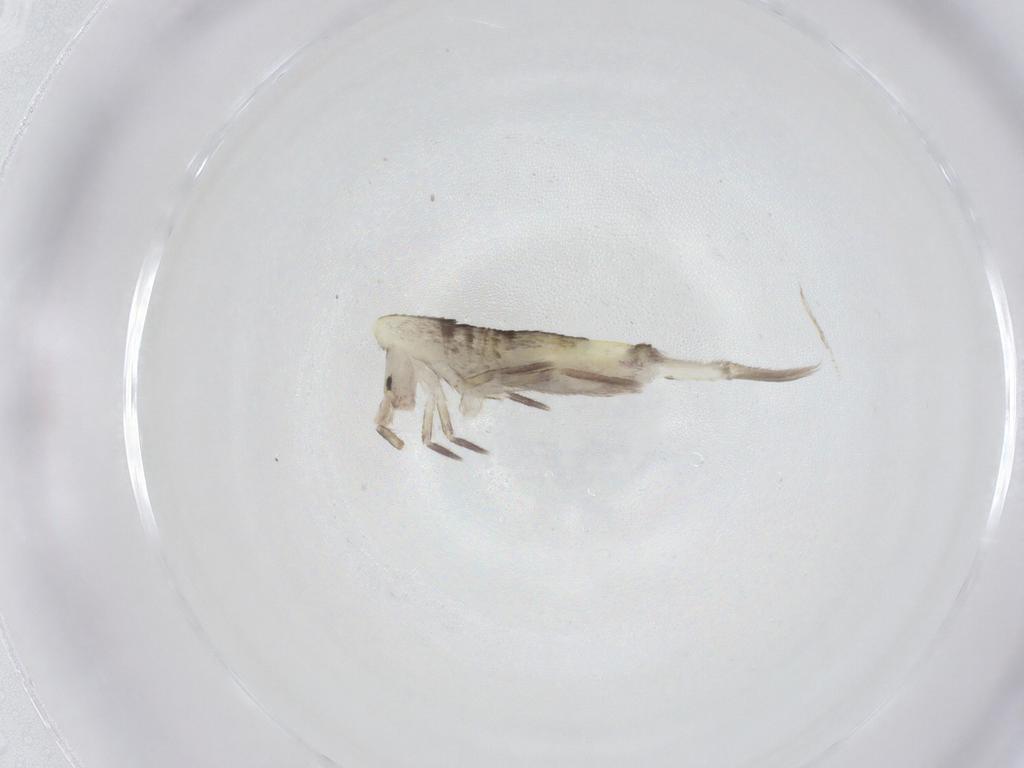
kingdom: Animalia
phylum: Arthropoda
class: Collembola
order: Entomobryomorpha
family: Entomobryidae
